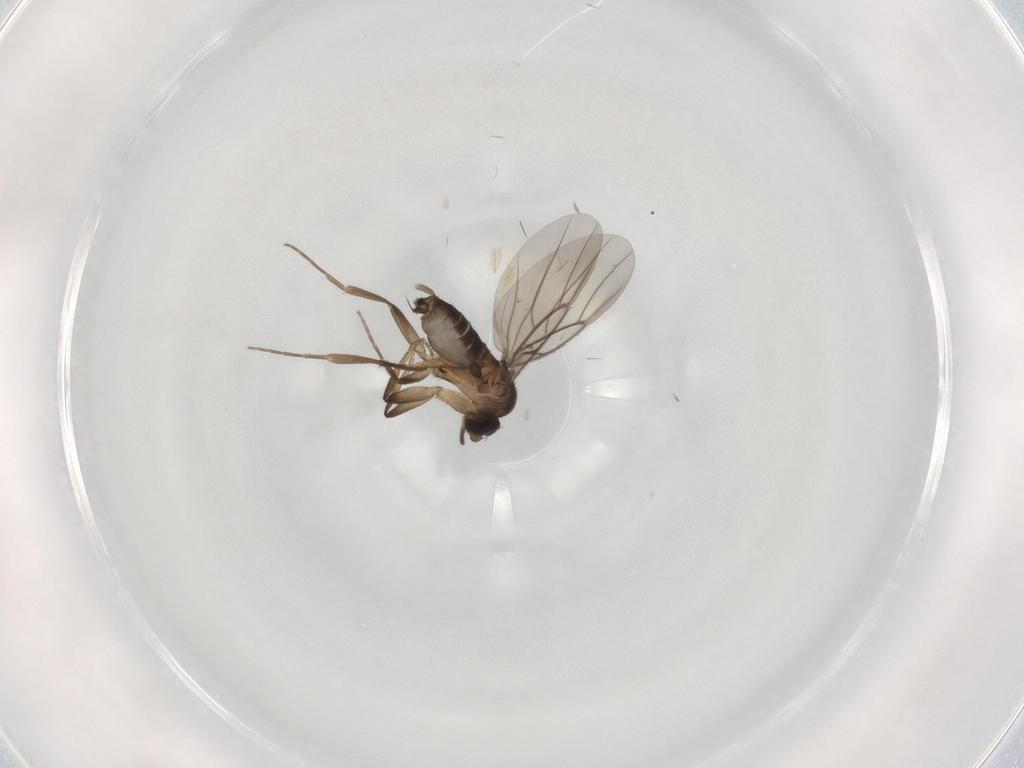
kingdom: Animalia
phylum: Arthropoda
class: Insecta
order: Diptera
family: Phoridae
